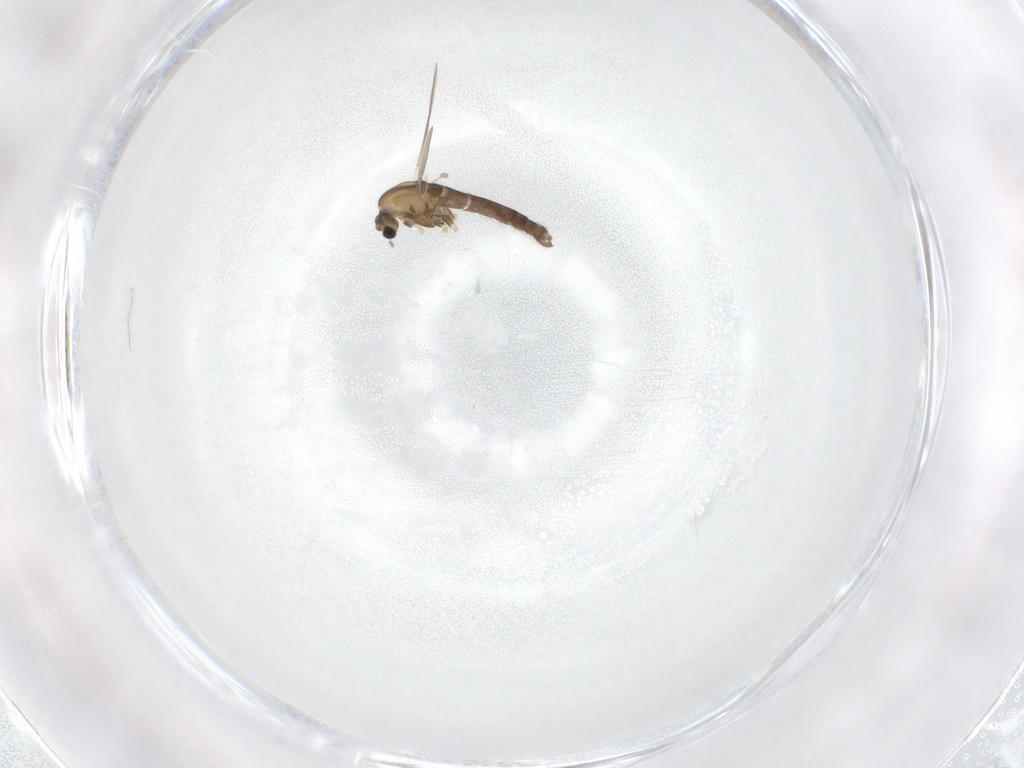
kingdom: Animalia
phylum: Arthropoda
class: Insecta
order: Diptera
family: Chironomidae
